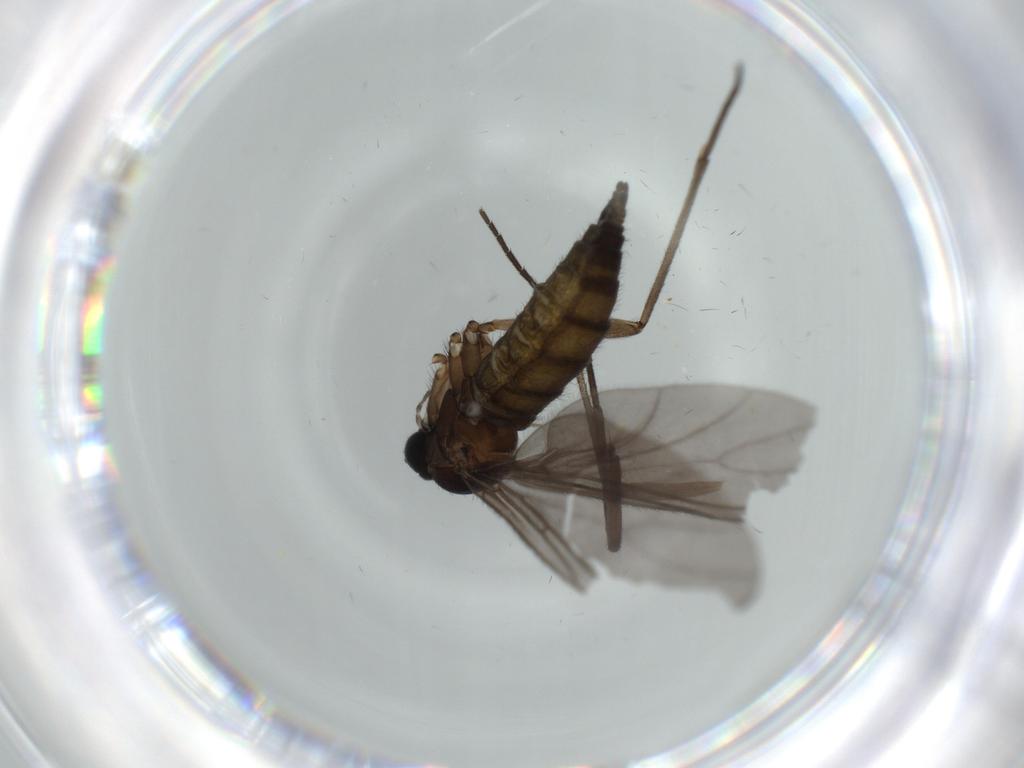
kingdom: Animalia
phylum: Arthropoda
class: Insecta
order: Diptera
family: Sciaridae
